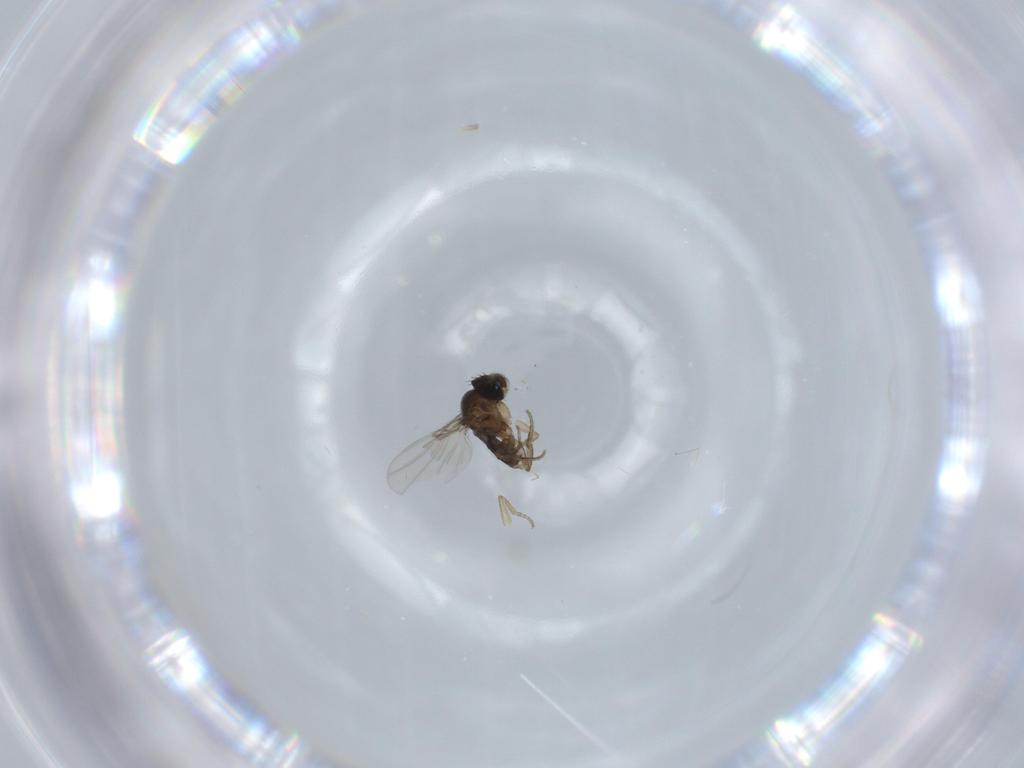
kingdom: Animalia
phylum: Arthropoda
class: Insecta
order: Diptera
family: Phoridae
